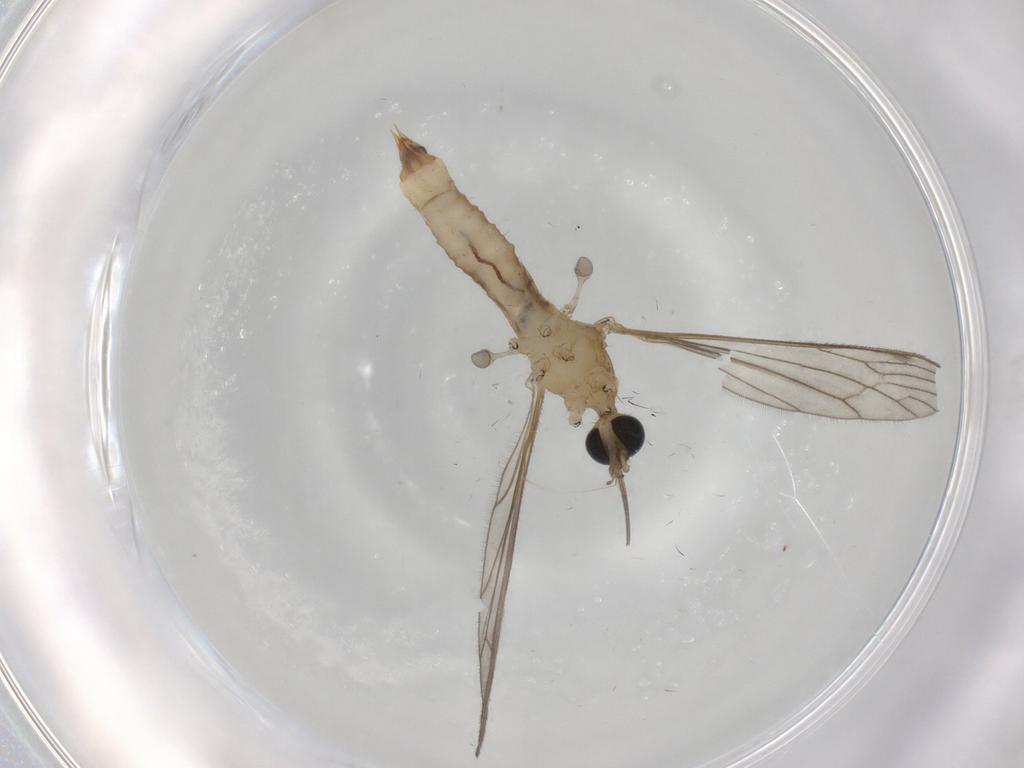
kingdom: Animalia
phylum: Arthropoda
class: Insecta
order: Diptera
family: Limoniidae
